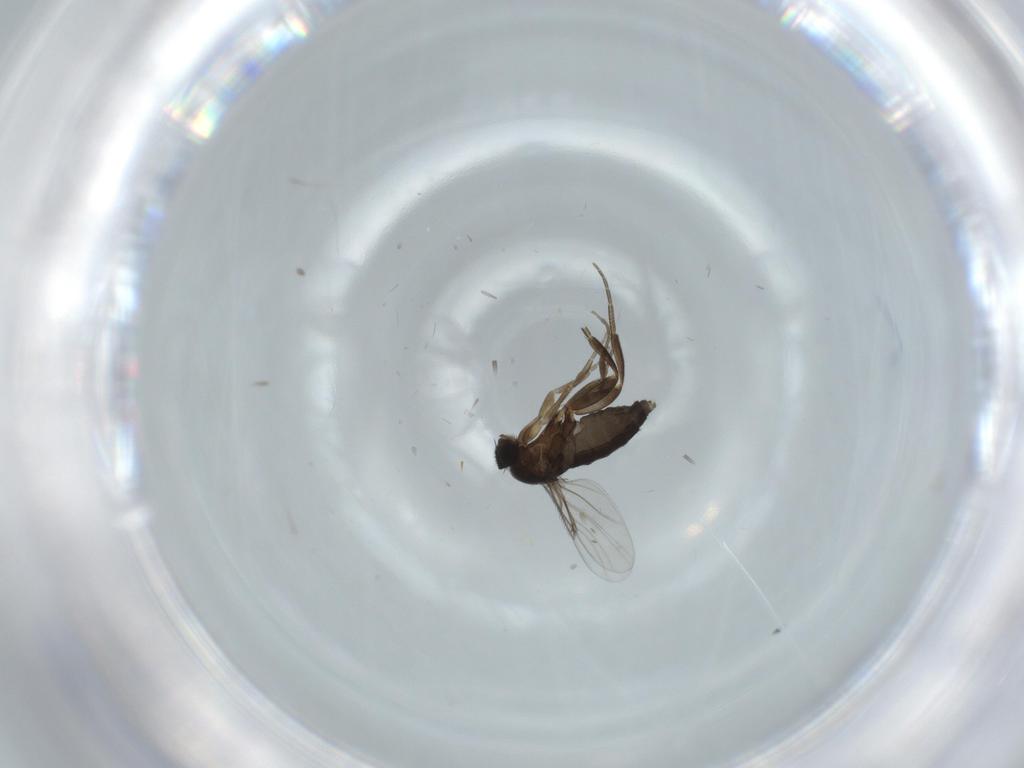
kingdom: Animalia
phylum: Arthropoda
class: Insecta
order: Diptera
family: Phoridae
